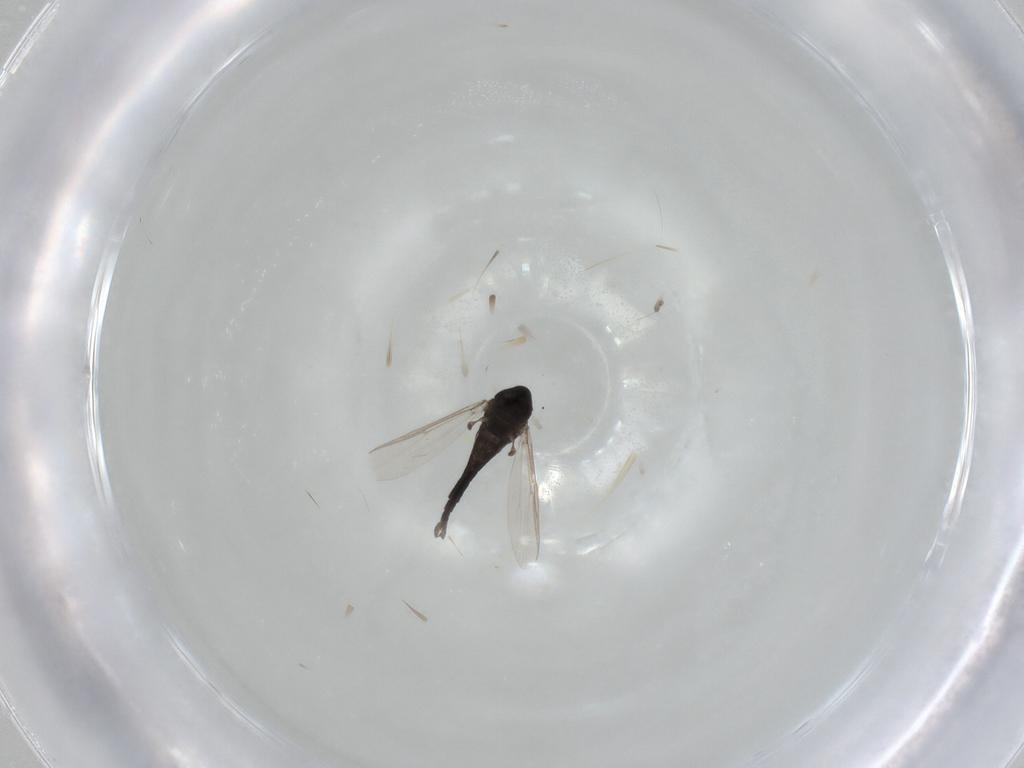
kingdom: Animalia
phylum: Arthropoda
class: Insecta
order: Diptera
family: Chironomidae
